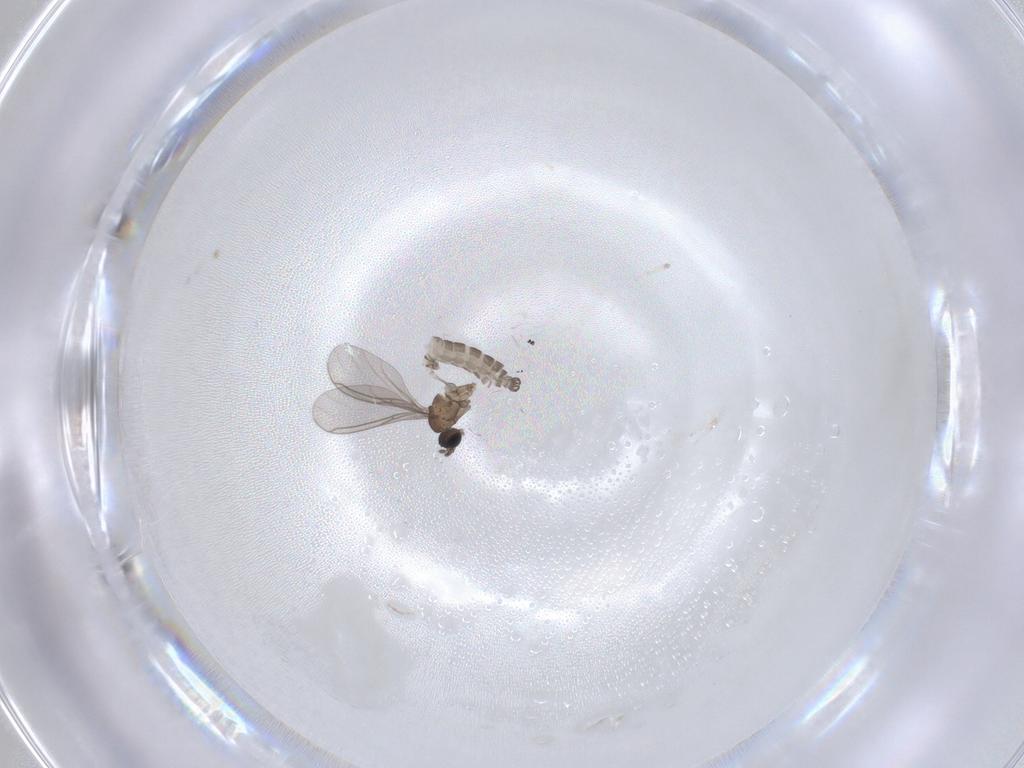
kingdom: Animalia
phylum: Arthropoda
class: Insecta
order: Diptera
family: Sciaridae
